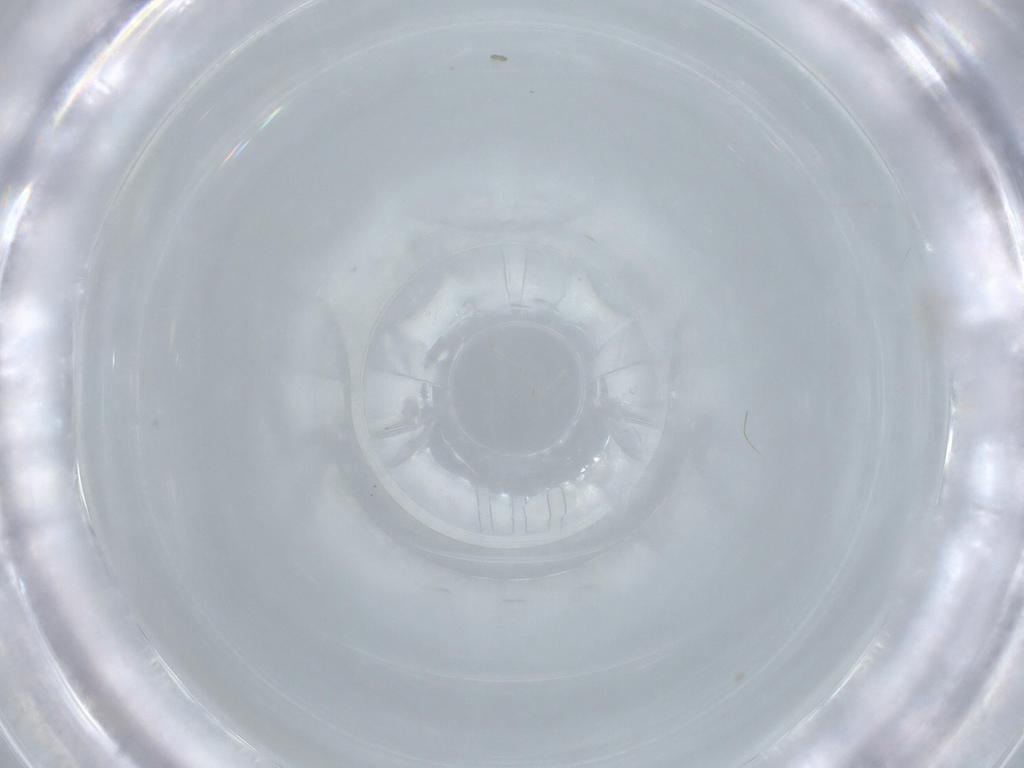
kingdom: Animalia
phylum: Arthropoda
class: Insecta
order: Diptera
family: Cecidomyiidae
